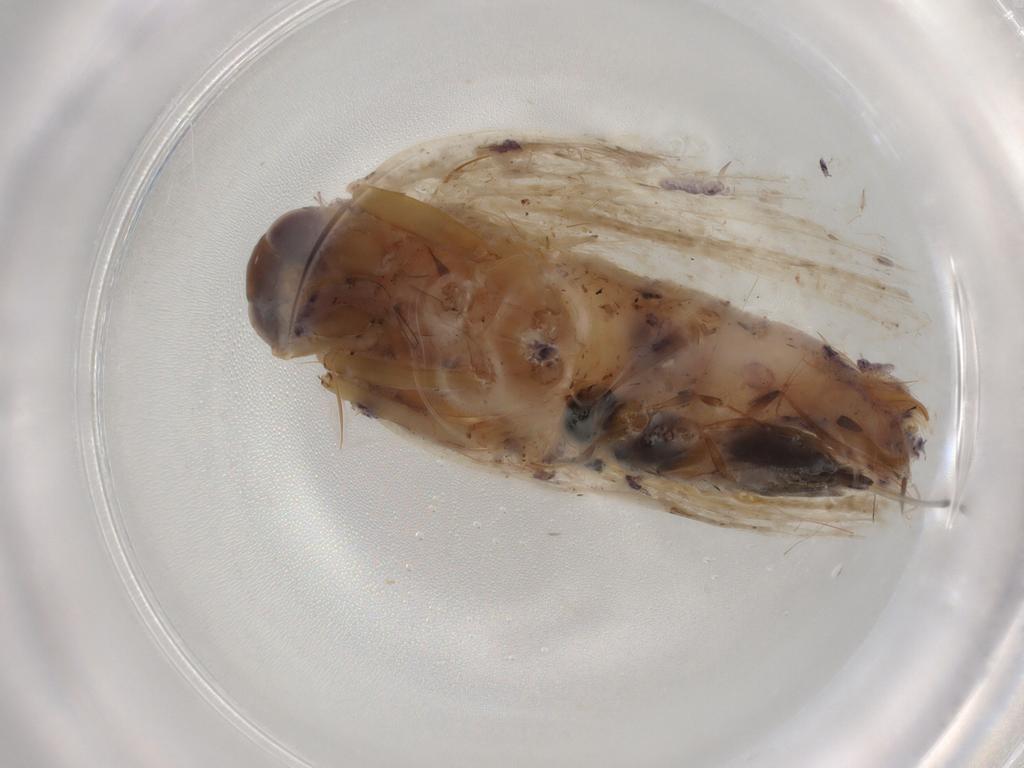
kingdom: Animalia
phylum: Arthropoda
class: Insecta
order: Lepidoptera
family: Depressariidae
